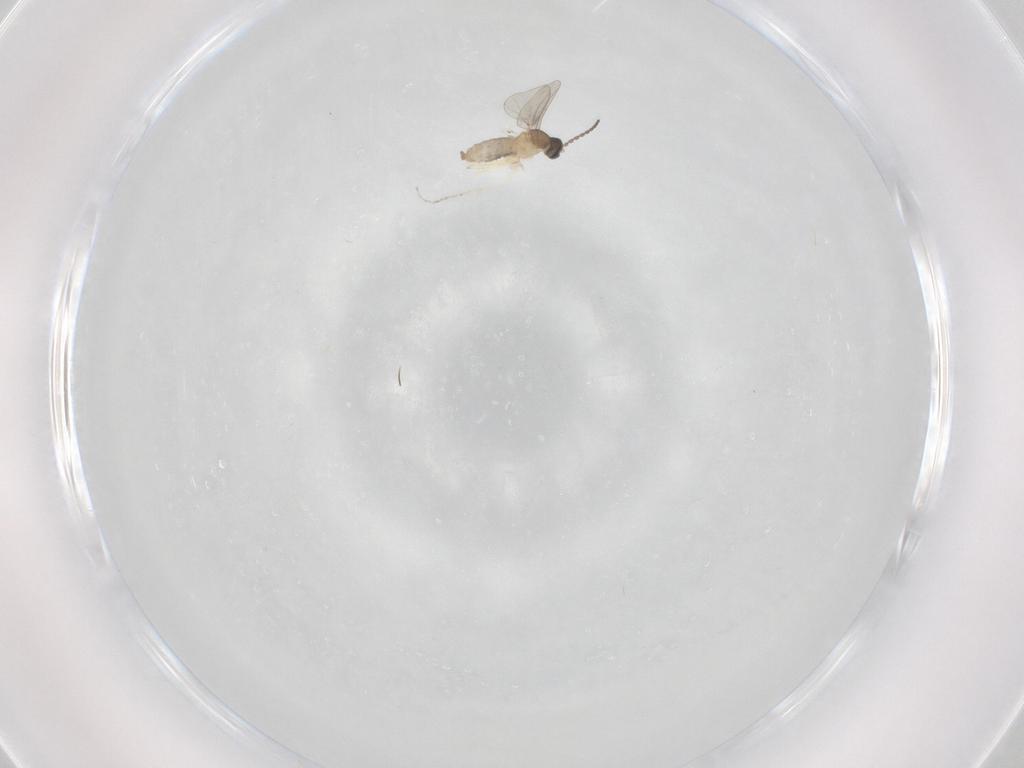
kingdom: Animalia
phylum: Arthropoda
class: Insecta
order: Diptera
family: Cecidomyiidae
